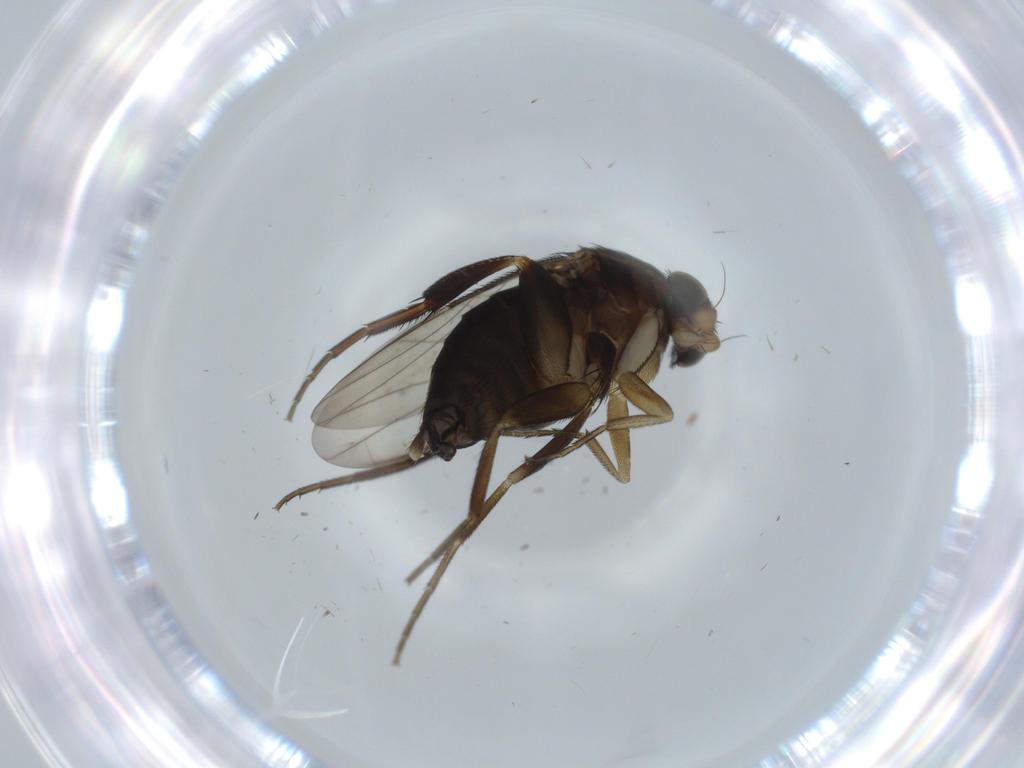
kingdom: Animalia
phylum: Arthropoda
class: Insecta
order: Diptera
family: Phoridae
